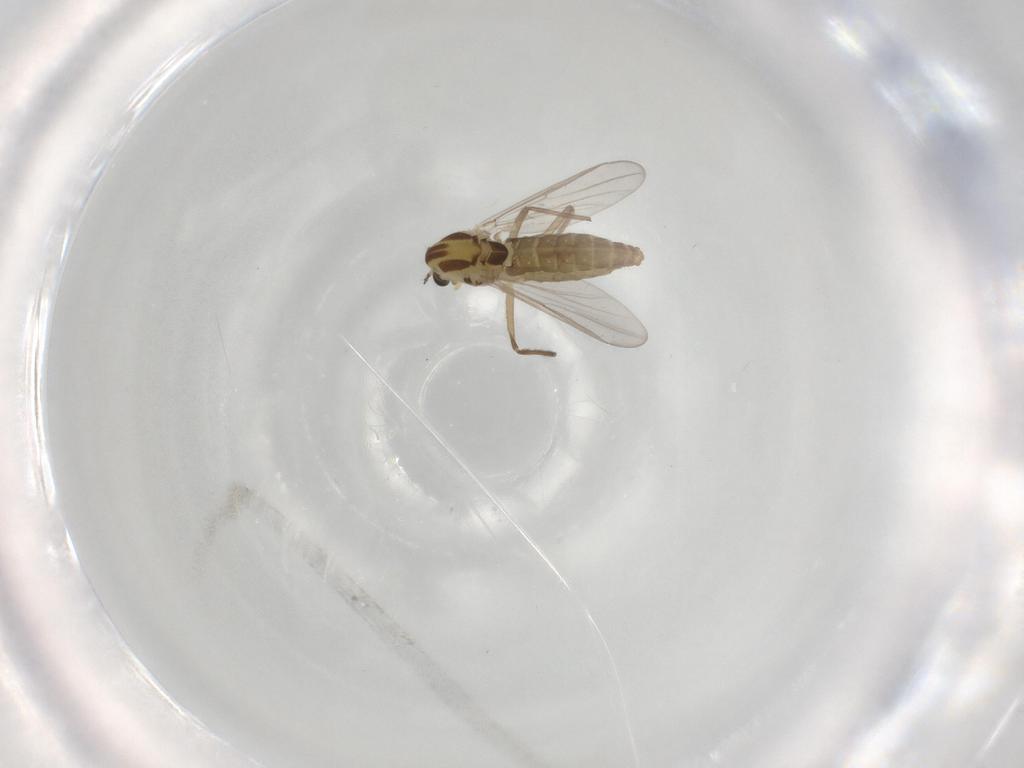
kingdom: Animalia
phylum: Arthropoda
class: Insecta
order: Diptera
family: Chironomidae
